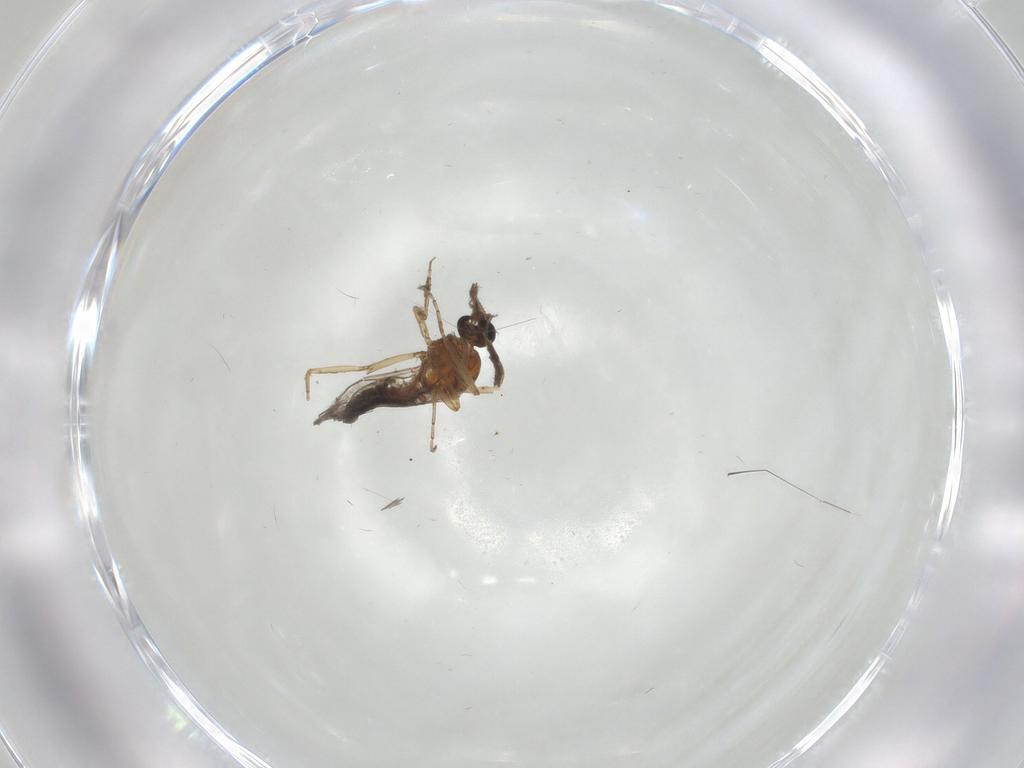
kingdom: Animalia
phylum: Arthropoda
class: Insecta
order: Diptera
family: Ceratopogonidae
